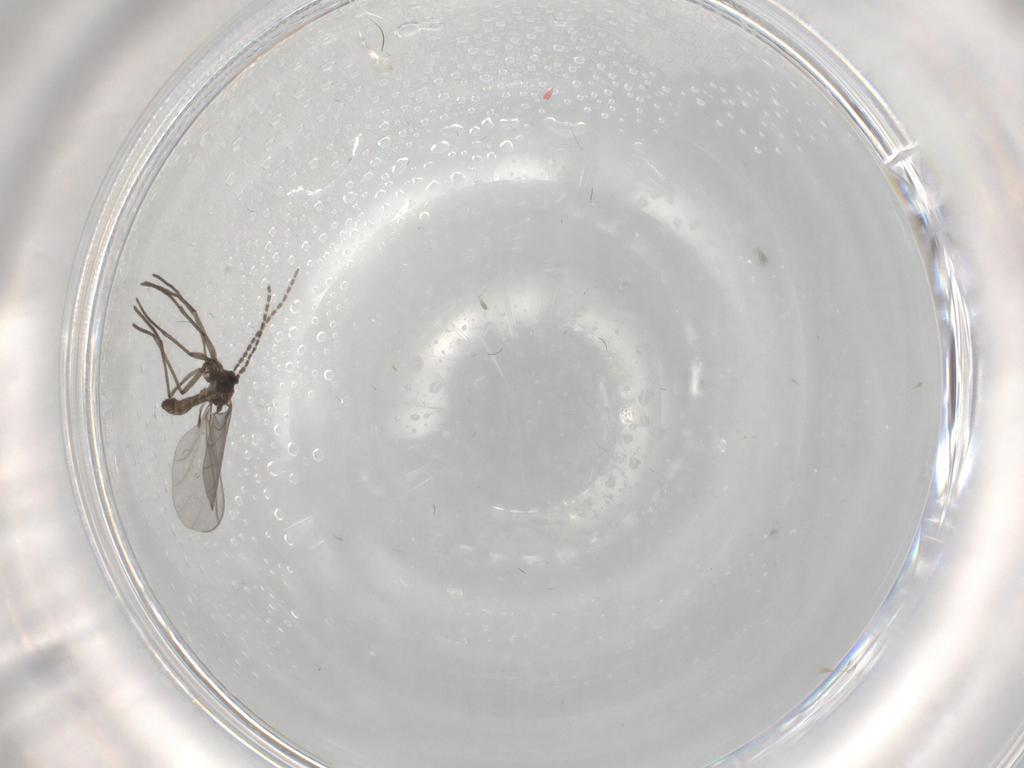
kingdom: Animalia
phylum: Arthropoda
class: Insecta
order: Diptera
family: Sciaridae
